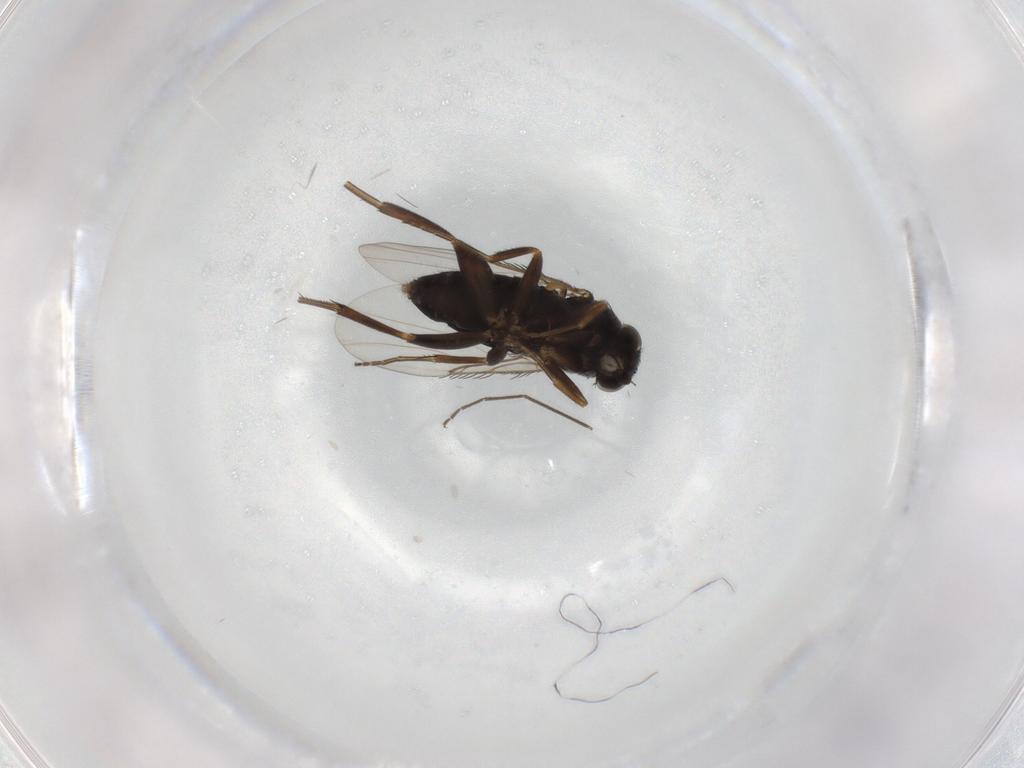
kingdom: Animalia
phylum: Arthropoda
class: Insecta
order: Diptera
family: Phoridae
